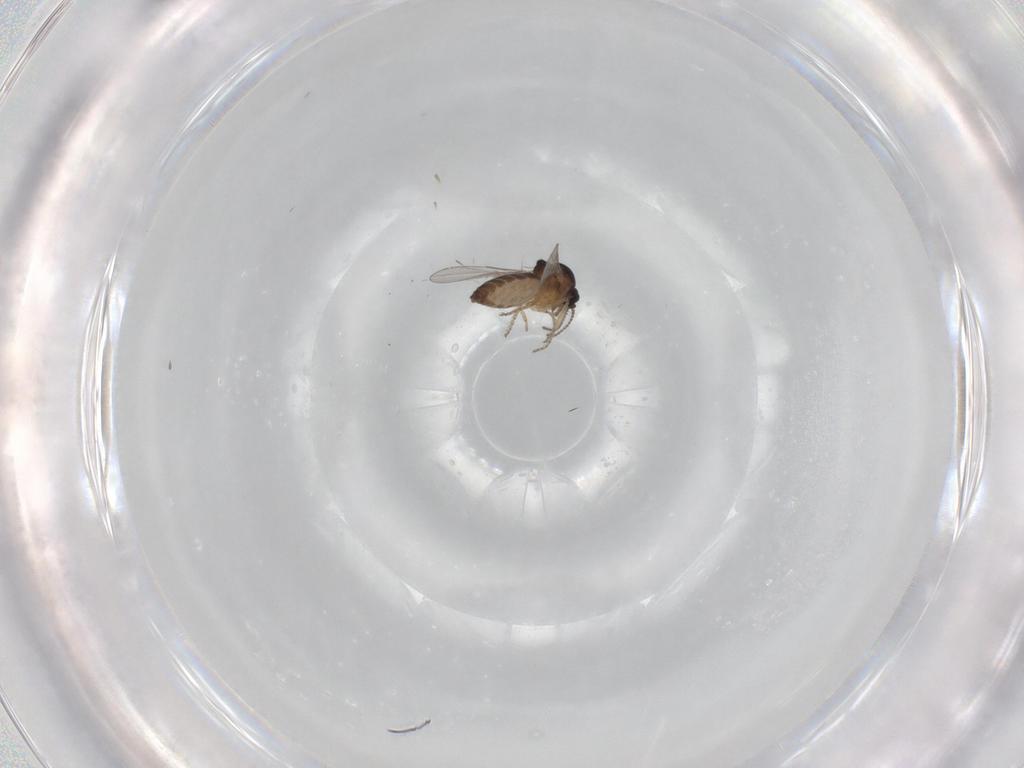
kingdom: Animalia
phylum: Arthropoda
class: Insecta
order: Diptera
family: Ceratopogonidae
